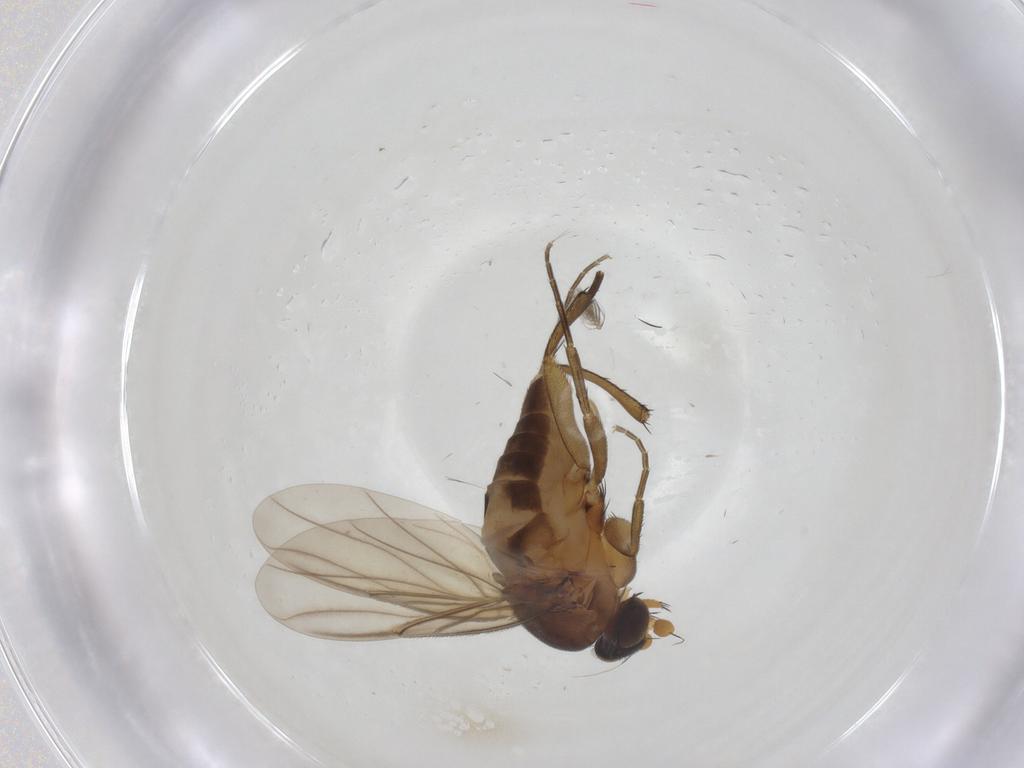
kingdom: Animalia
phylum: Arthropoda
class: Insecta
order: Diptera
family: Phoridae
